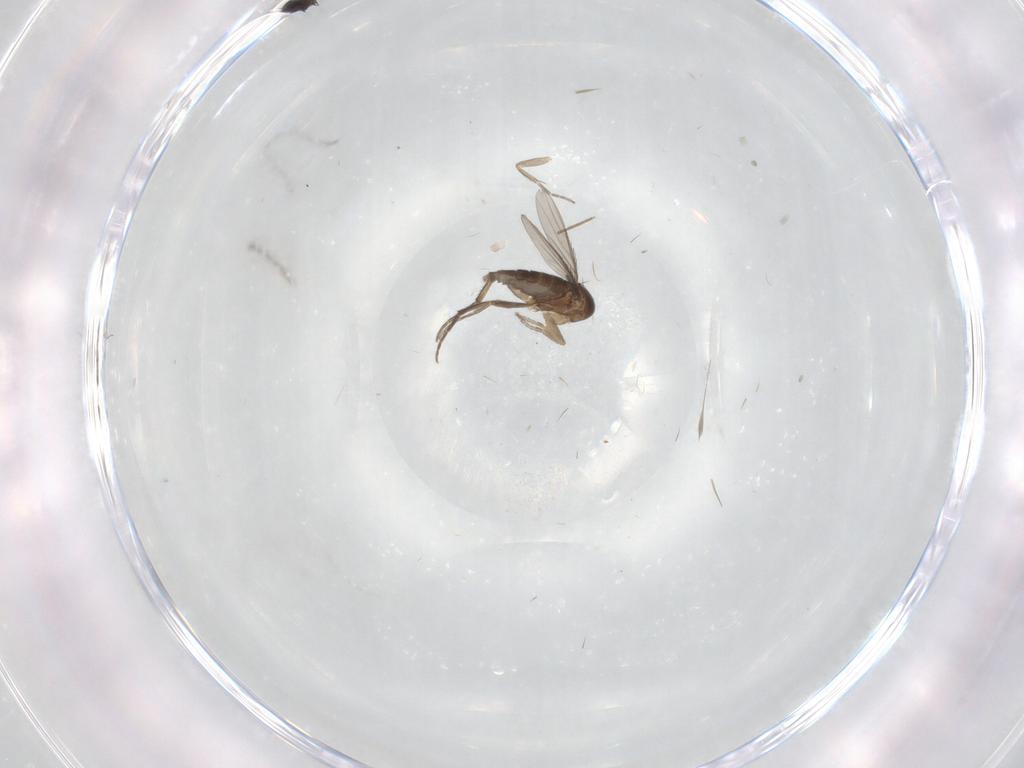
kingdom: Animalia
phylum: Arthropoda
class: Insecta
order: Diptera
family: Phoridae
